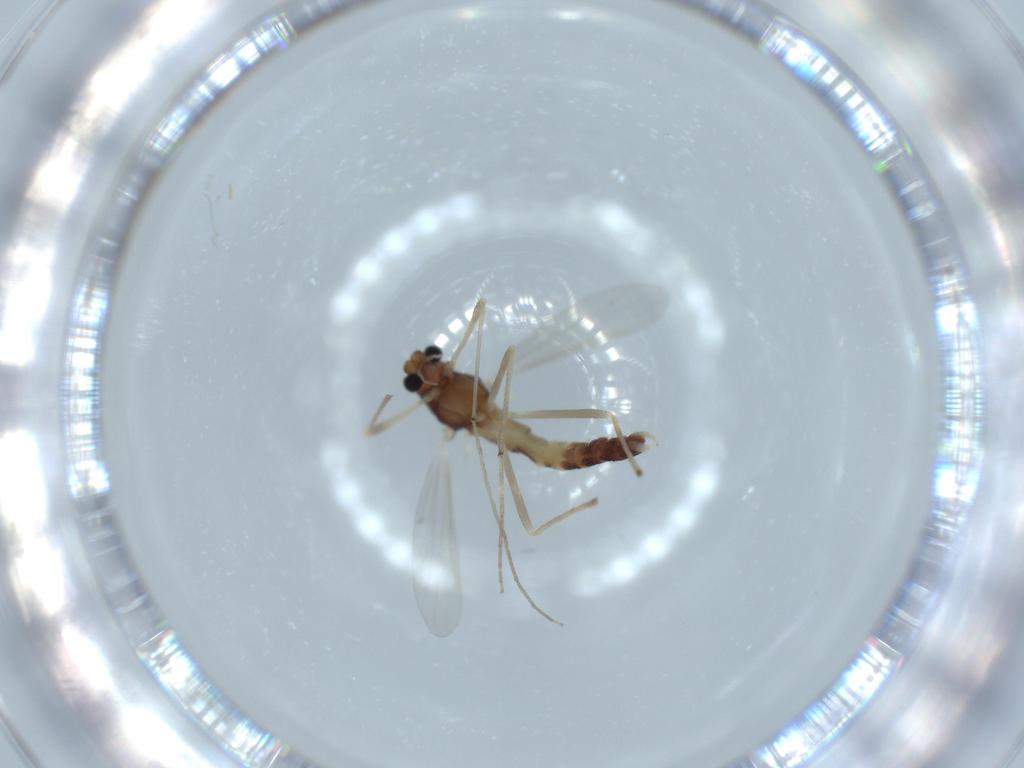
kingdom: Animalia
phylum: Arthropoda
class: Insecta
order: Diptera
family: Chironomidae
